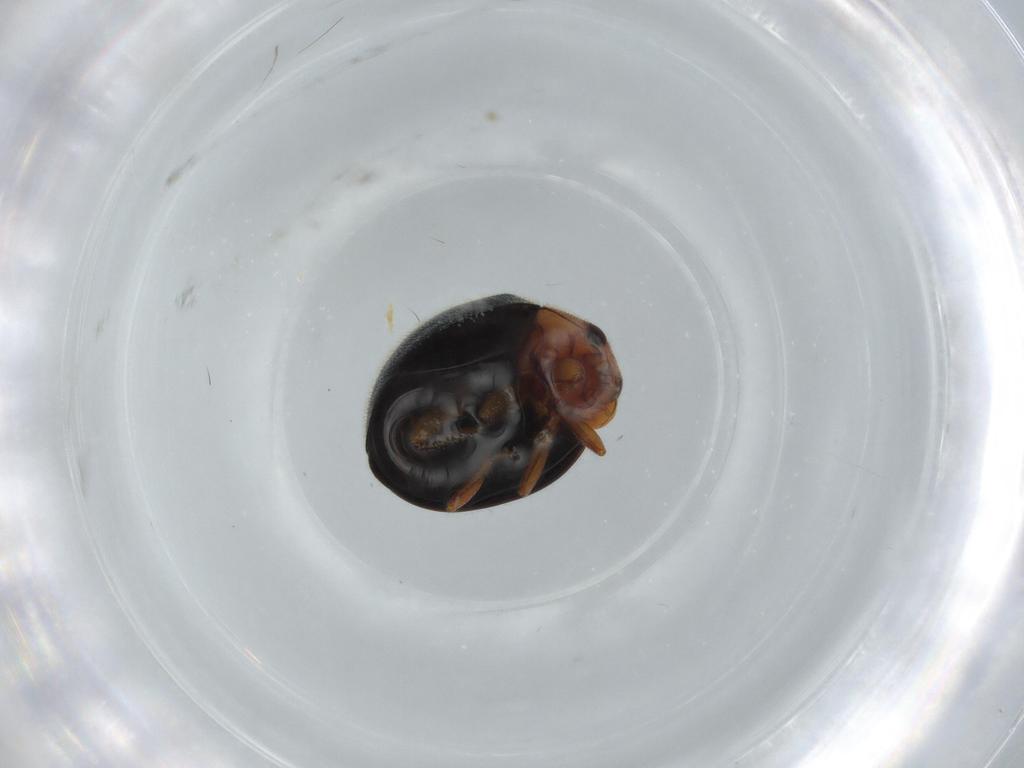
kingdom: Animalia
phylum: Arthropoda
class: Insecta
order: Coleoptera
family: Coccinellidae
